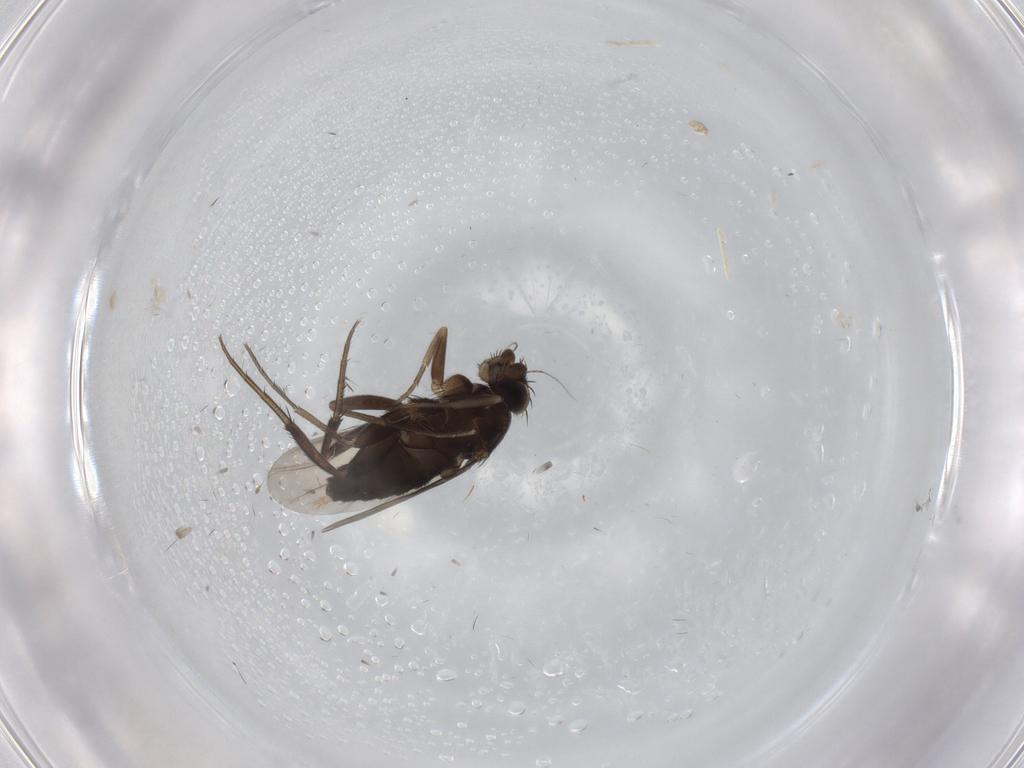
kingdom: Animalia
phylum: Arthropoda
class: Insecta
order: Diptera
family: Phoridae
